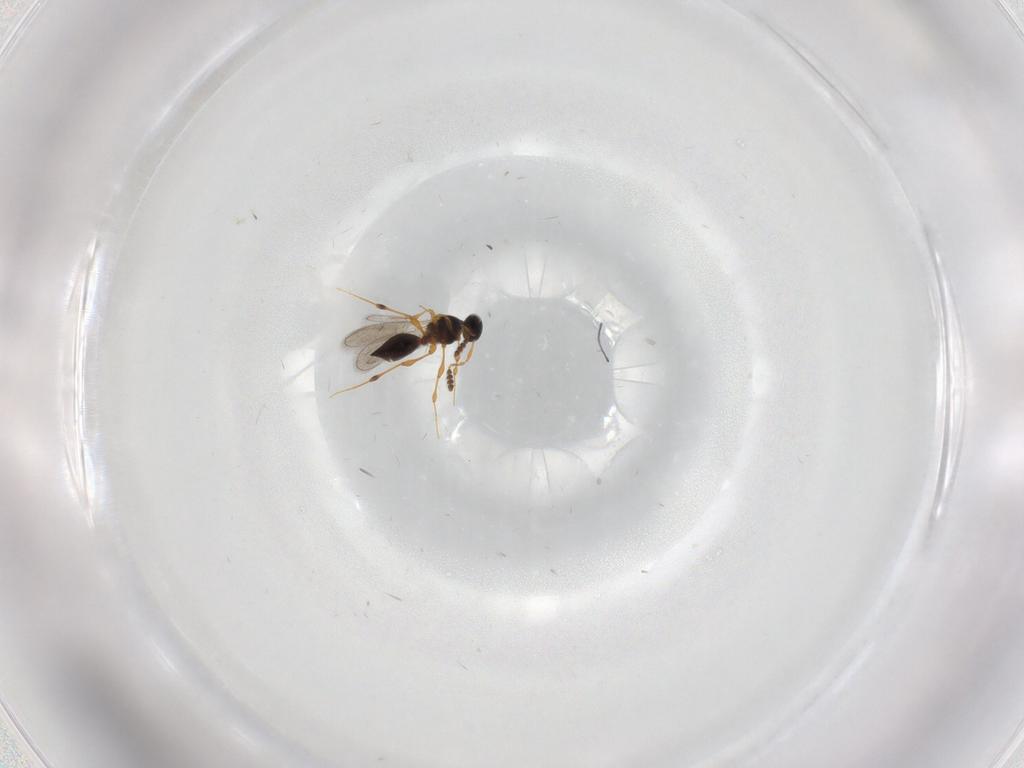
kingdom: Animalia
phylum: Arthropoda
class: Insecta
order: Hymenoptera
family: Platygastridae
